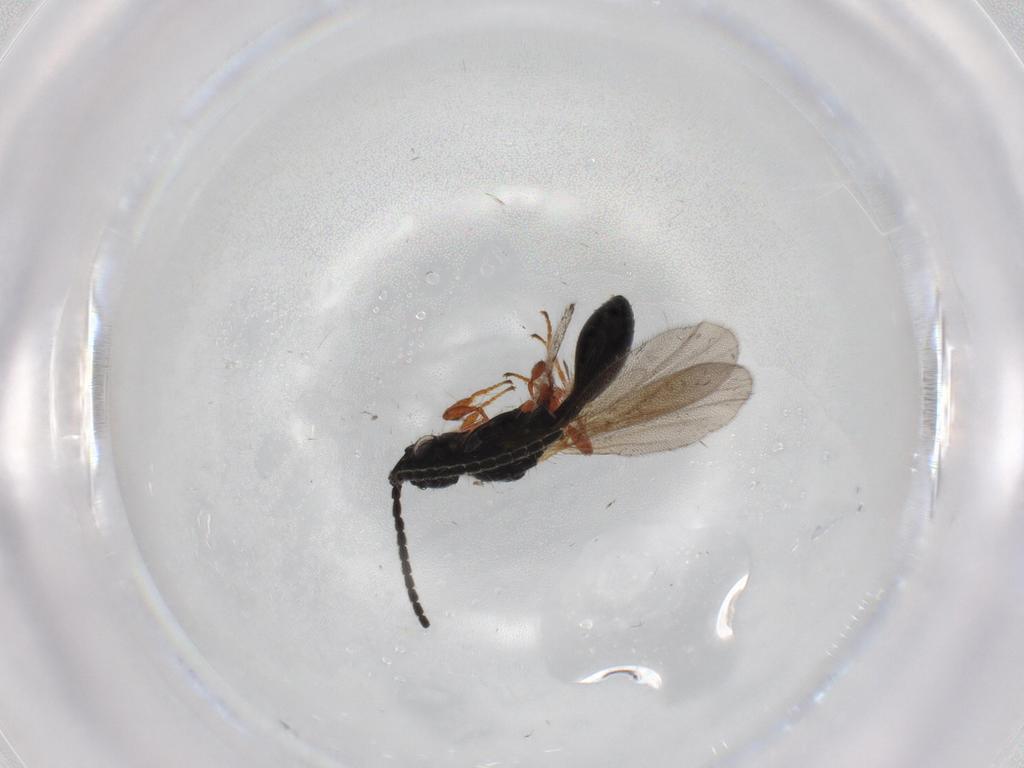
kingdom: Animalia
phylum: Arthropoda
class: Insecta
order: Hymenoptera
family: Diapriidae
